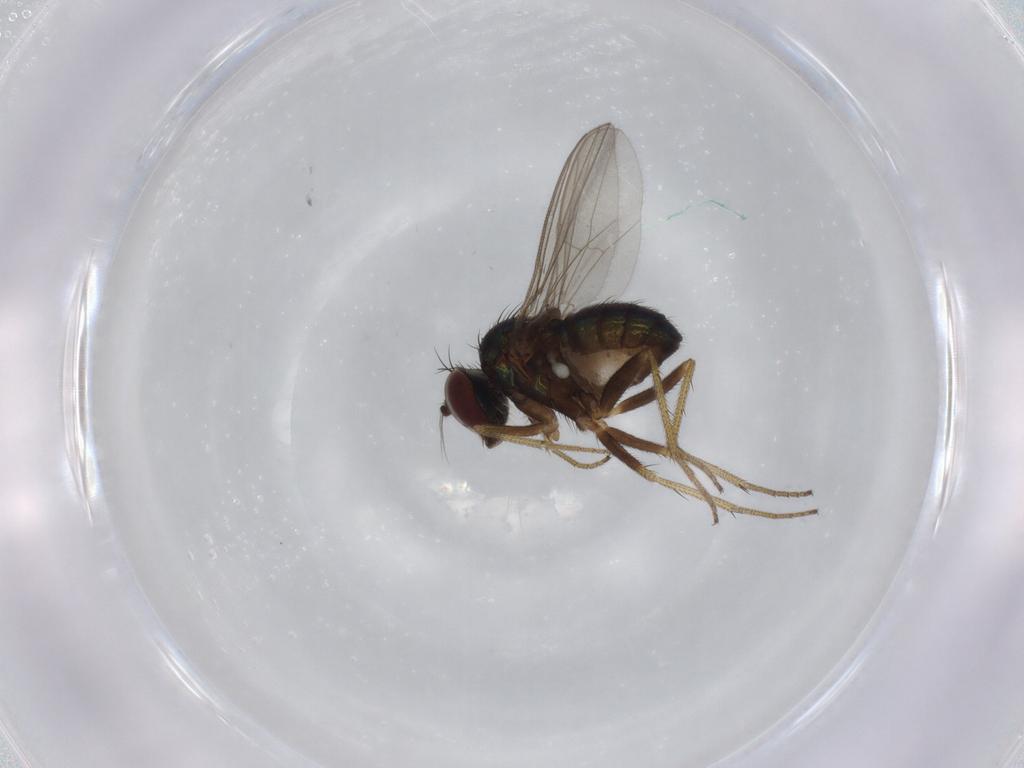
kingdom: Animalia
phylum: Arthropoda
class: Insecta
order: Diptera
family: Dolichopodidae
